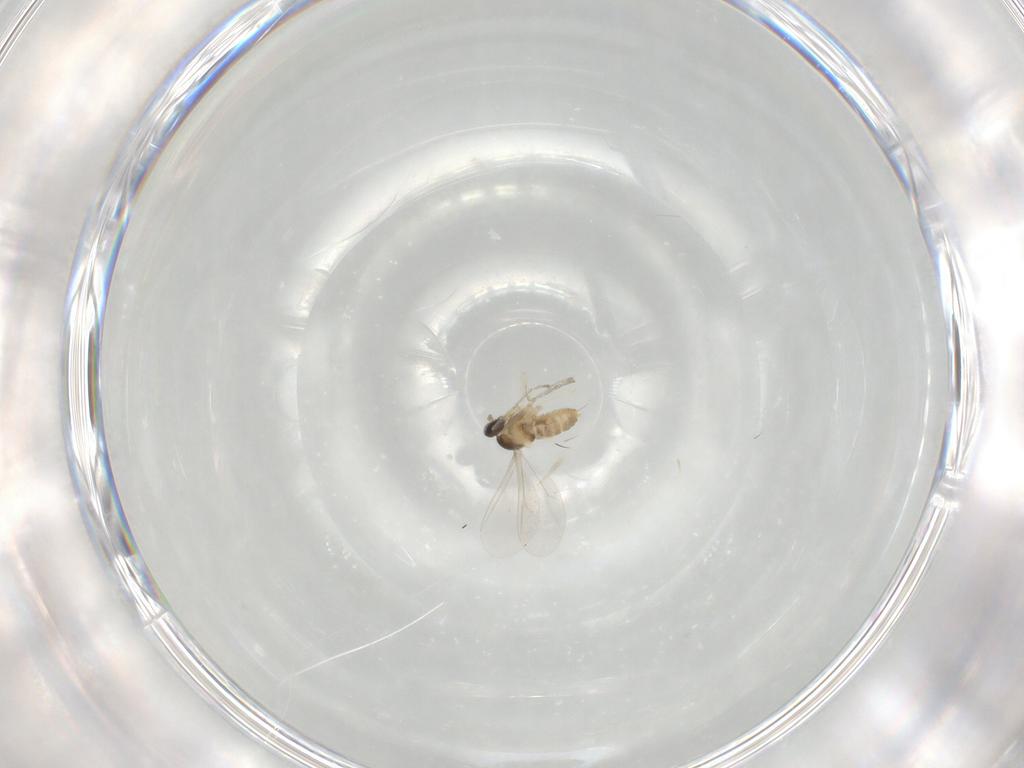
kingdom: Animalia
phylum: Arthropoda
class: Insecta
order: Diptera
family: Cecidomyiidae
